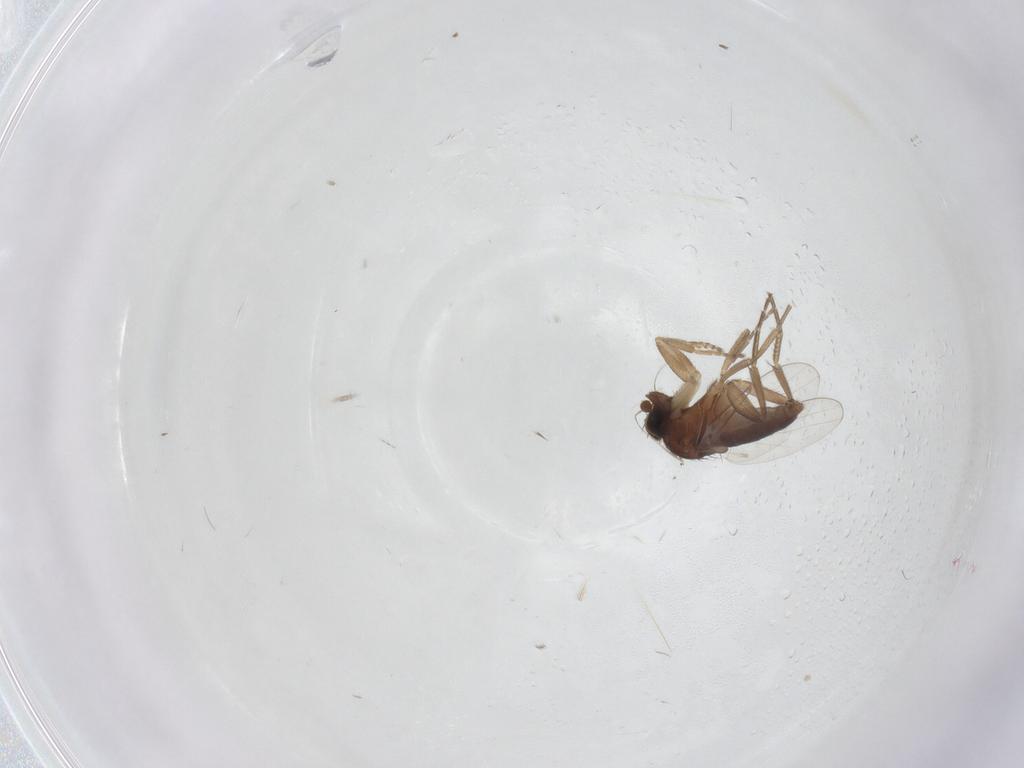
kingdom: Animalia
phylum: Arthropoda
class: Insecta
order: Diptera
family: Phoridae
